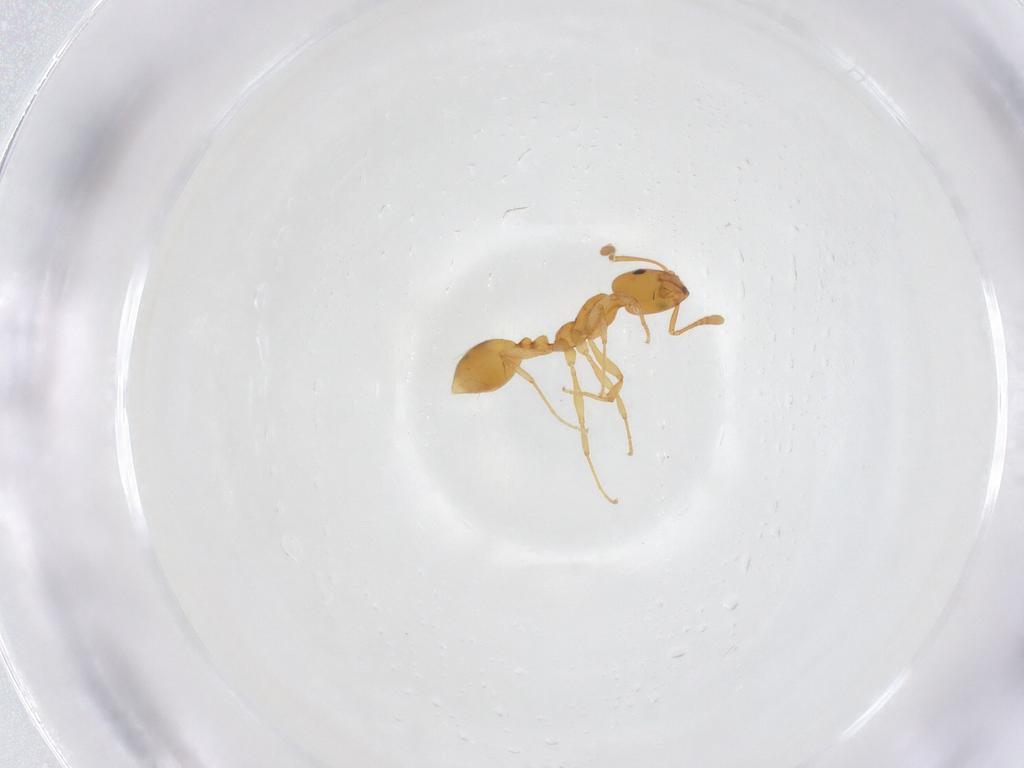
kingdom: Animalia
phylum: Arthropoda
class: Insecta
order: Hymenoptera
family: Formicidae
